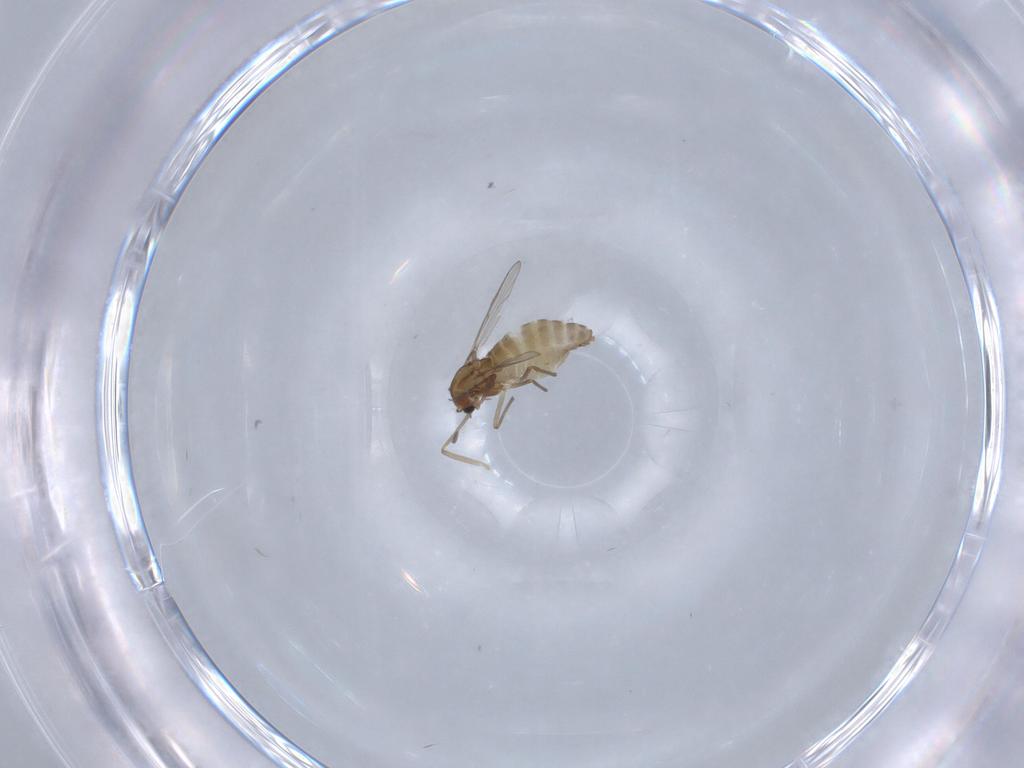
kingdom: Animalia
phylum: Arthropoda
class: Insecta
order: Diptera
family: Chironomidae
